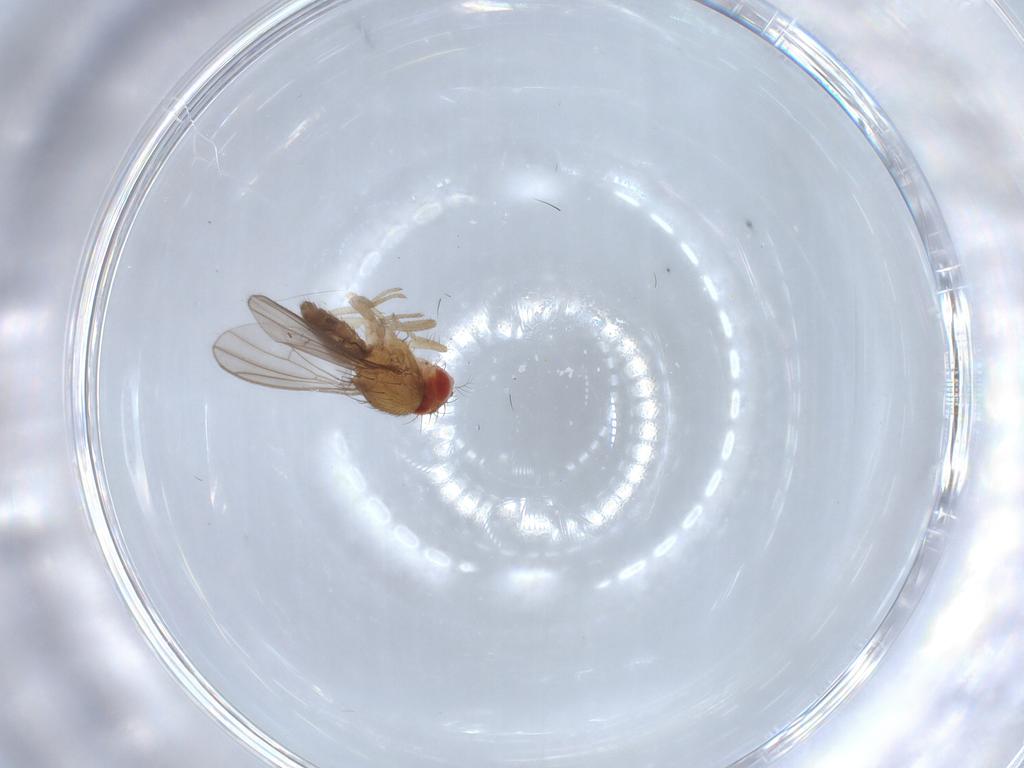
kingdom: Animalia
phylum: Arthropoda
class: Insecta
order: Diptera
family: Drosophilidae
